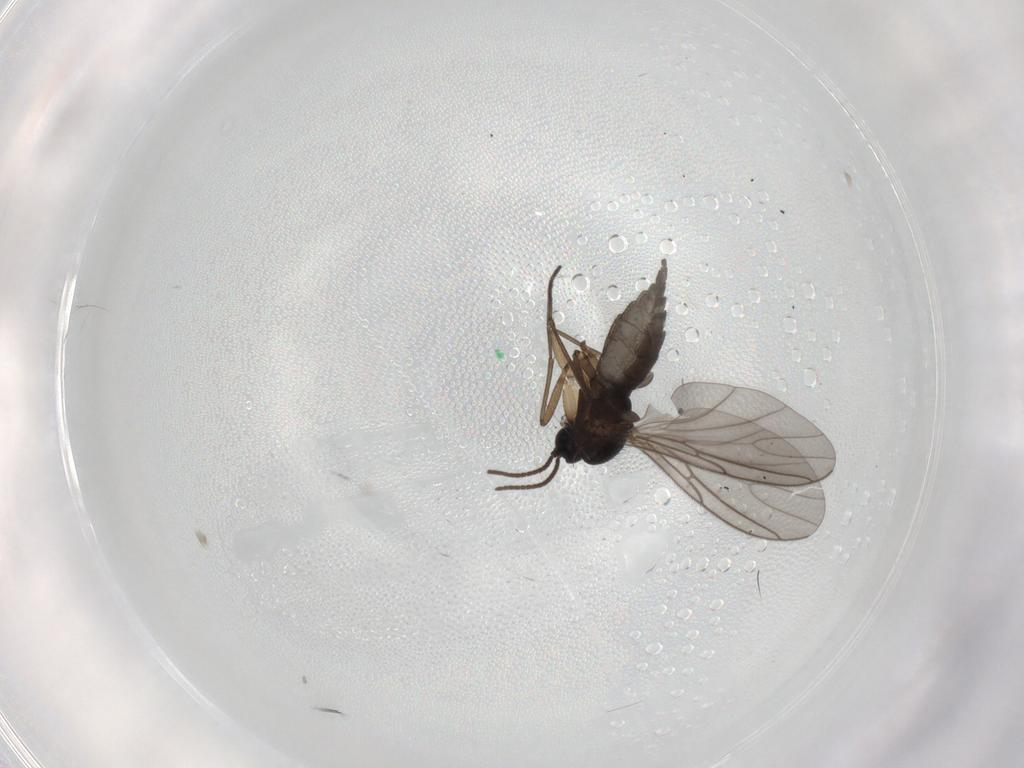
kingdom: Animalia
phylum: Arthropoda
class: Insecta
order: Diptera
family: Sciaridae
